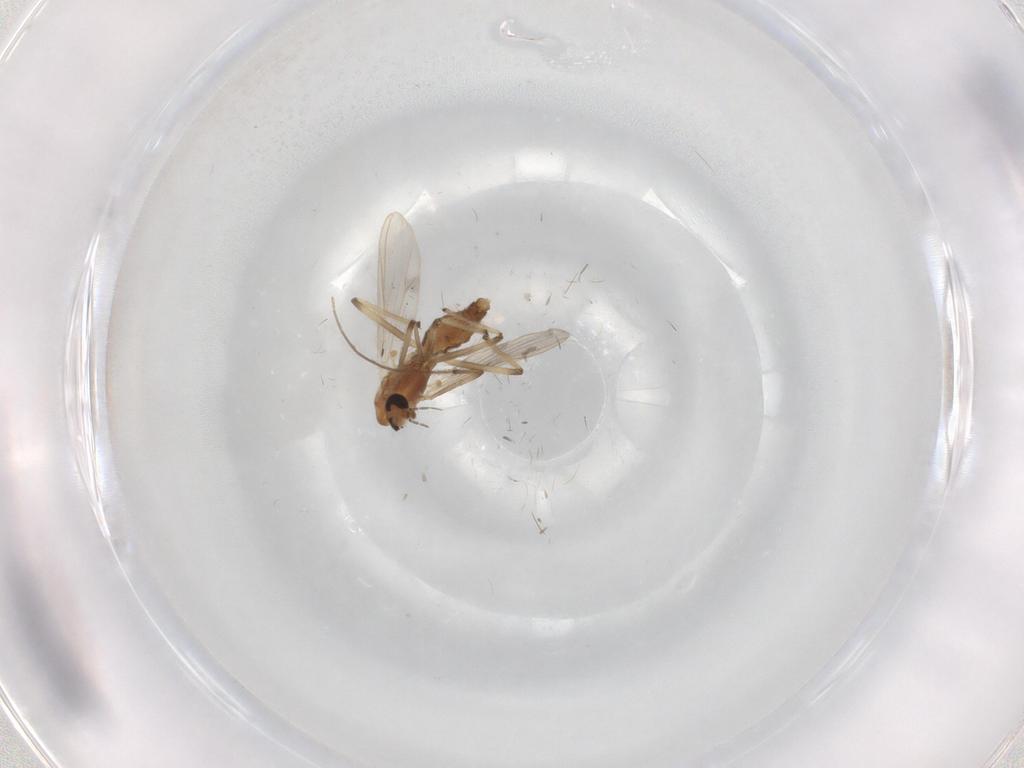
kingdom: Animalia
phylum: Arthropoda
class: Insecta
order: Diptera
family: Chironomidae
